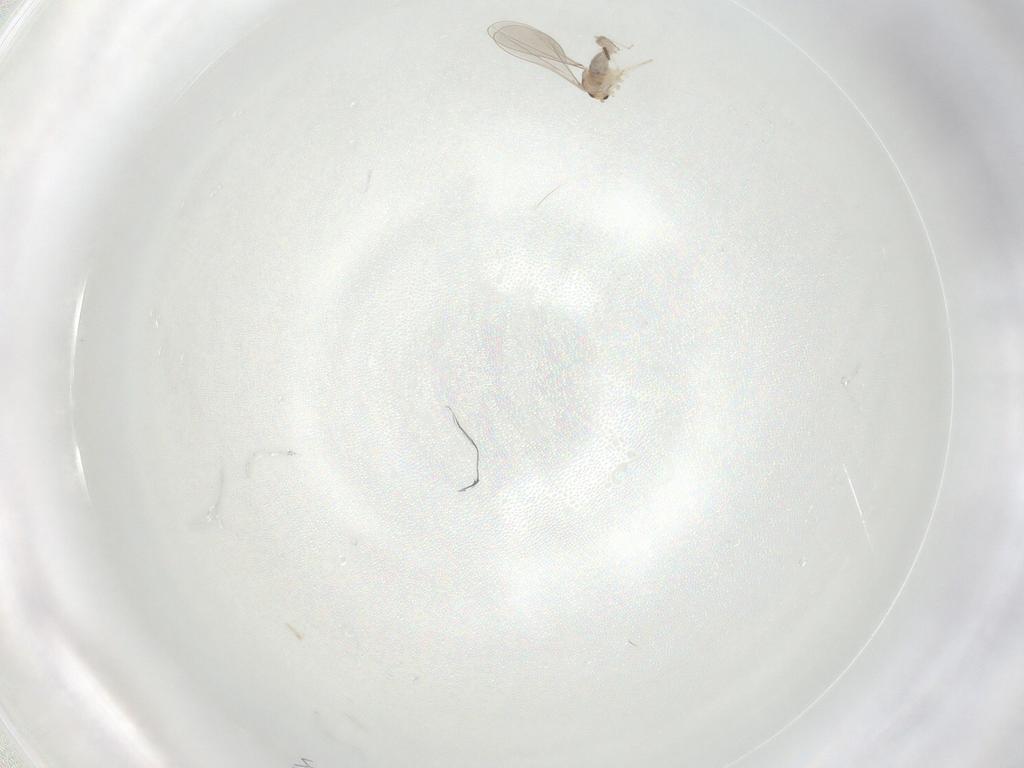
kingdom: Animalia
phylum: Arthropoda
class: Insecta
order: Diptera
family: Cecidomyiidae
